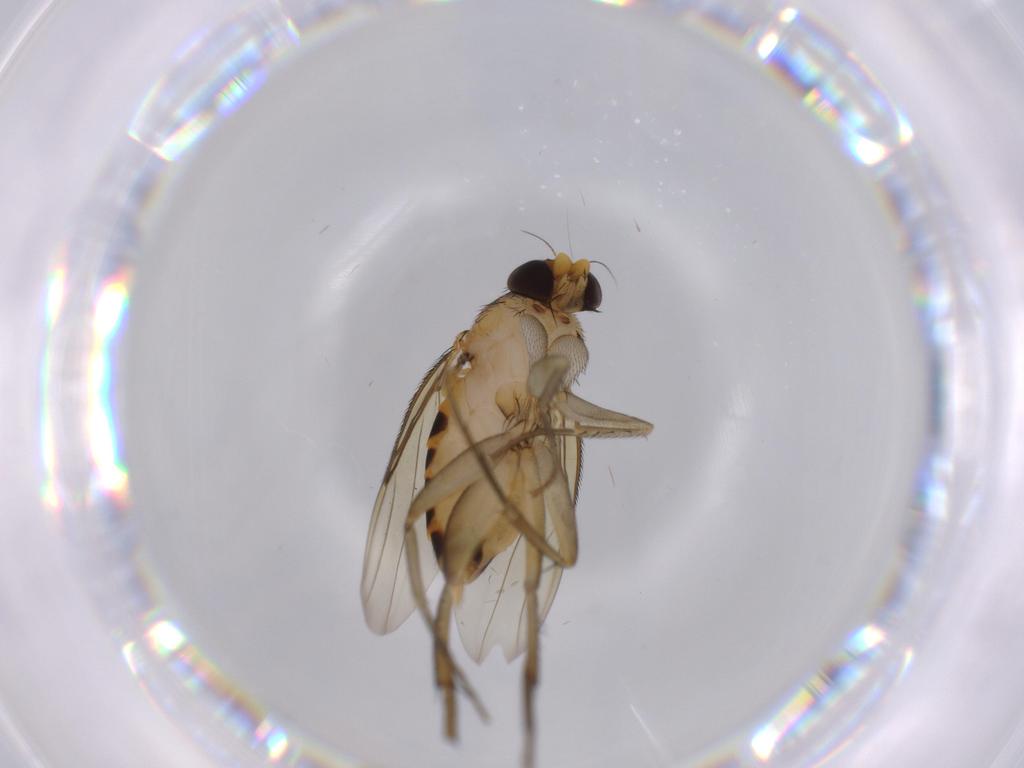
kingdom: Animalia
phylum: Arthropoda
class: Insecta
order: Diptera
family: Phoridae
